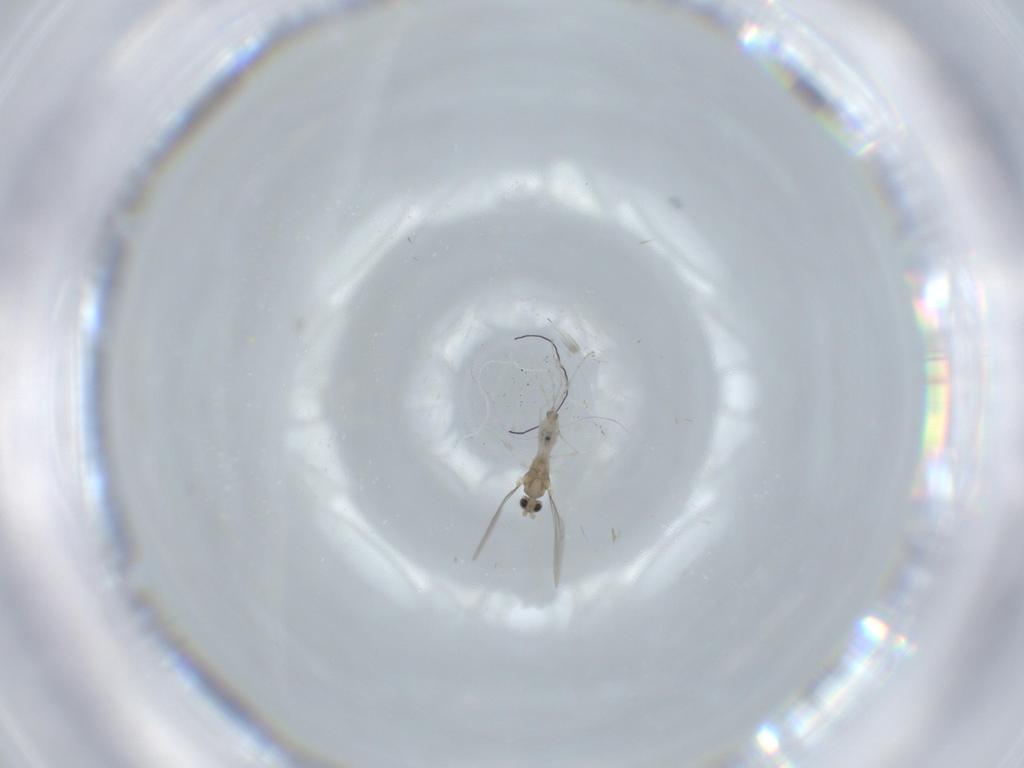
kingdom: Animalia
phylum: Arthropoda
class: Insecta
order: Diptera
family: Cecidomyiidae
